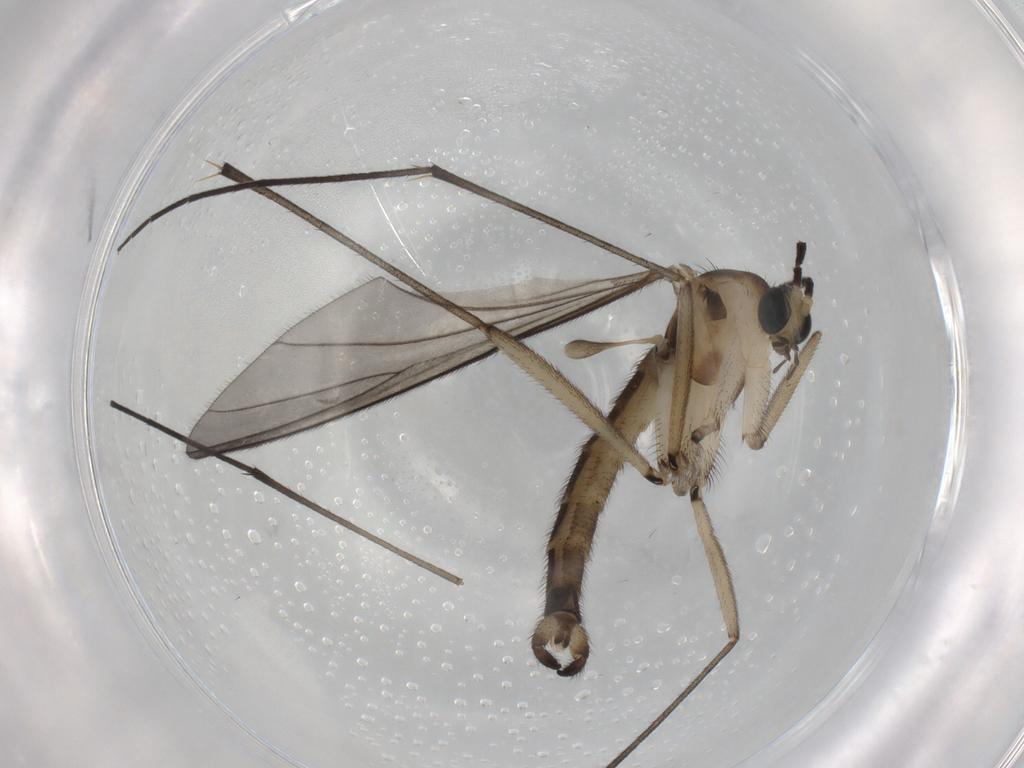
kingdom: Animalia
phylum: Arthropoda
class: Insecta
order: Diptera
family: Sciaridae
